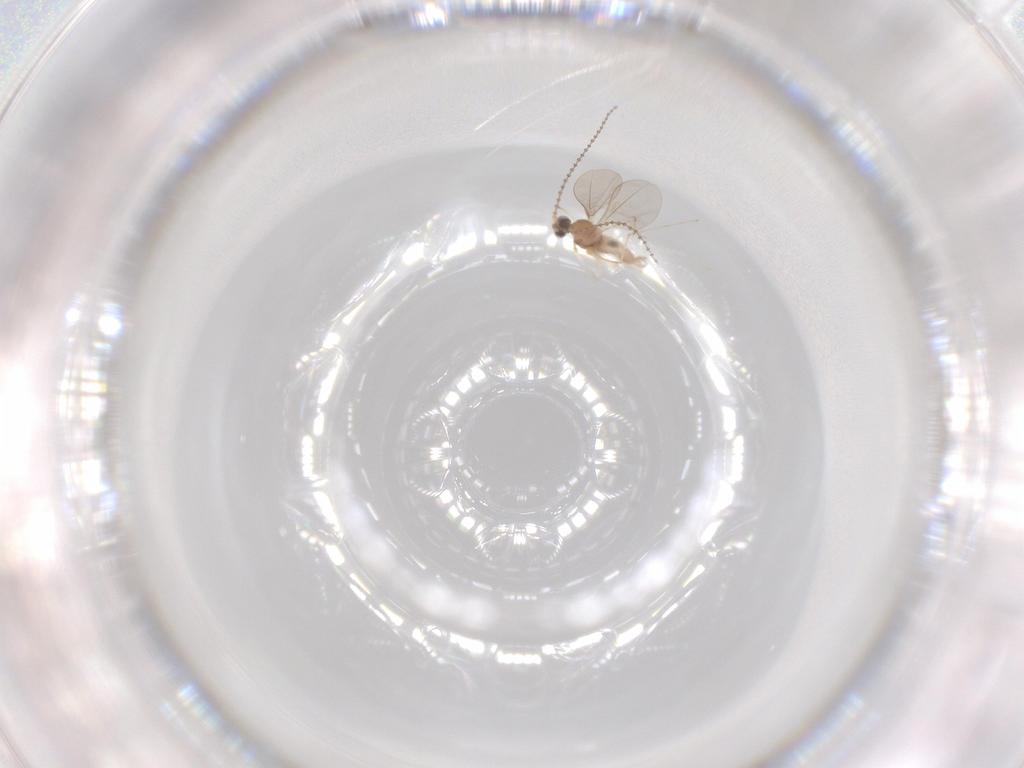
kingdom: Animalia
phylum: Arthropoda
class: Insecta
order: Diptera
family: Cecidomyiidae
